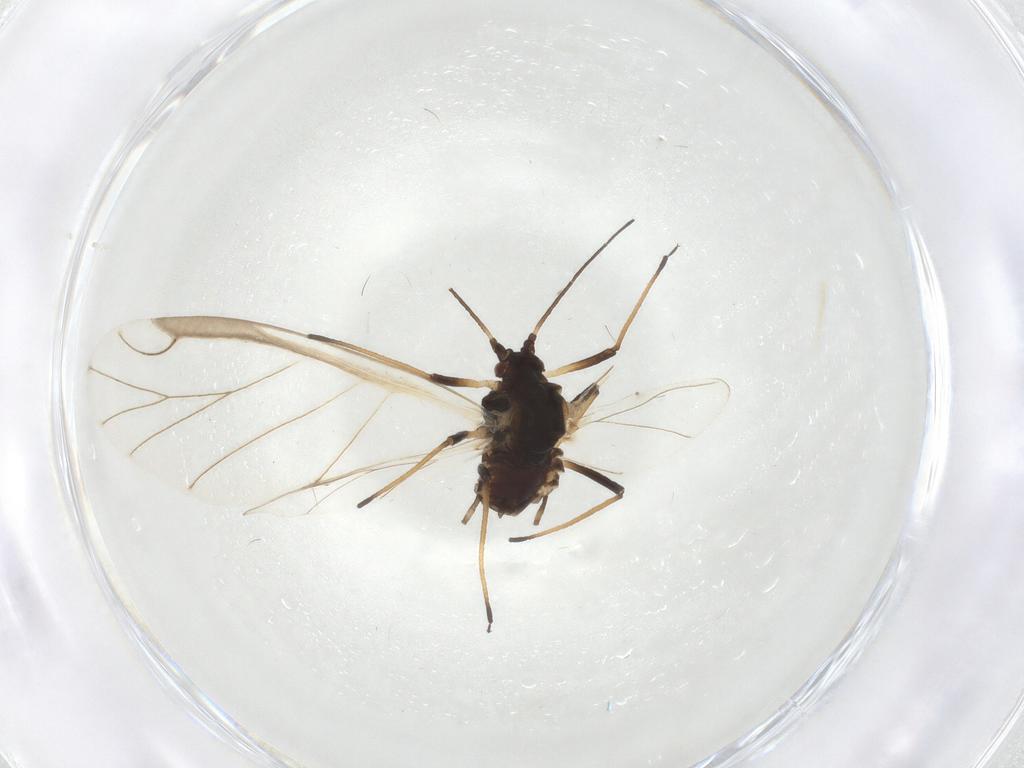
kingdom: Animalia
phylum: Arthropoda
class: Insecta
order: Hemiptera
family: Aphididae
